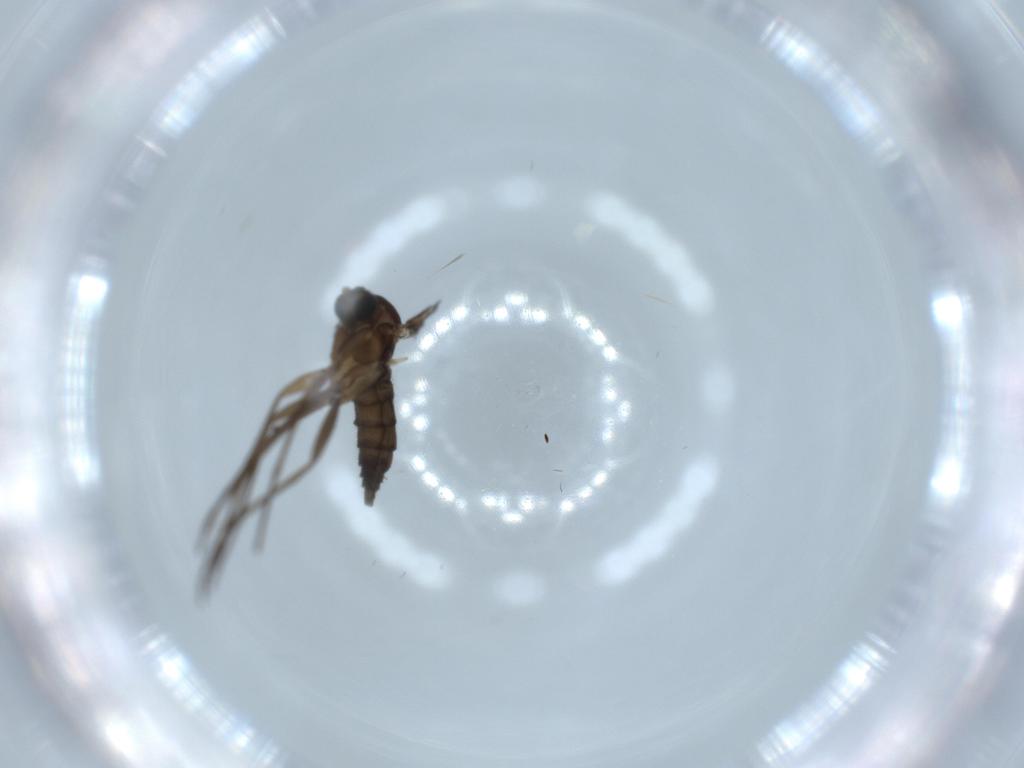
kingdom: Animalia
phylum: Arthropoda
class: Insecta
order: Diptera
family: Sciaridae
